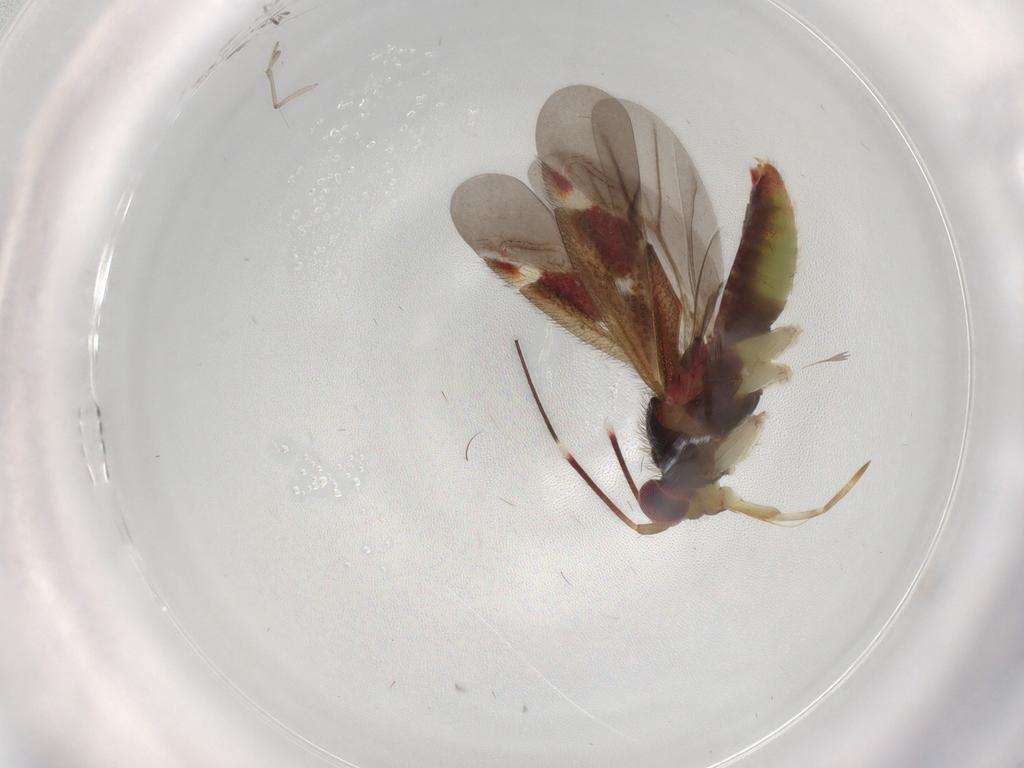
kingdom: Animalia
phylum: Arthropoda
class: Insecta
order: Hemiptera
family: Miridae
